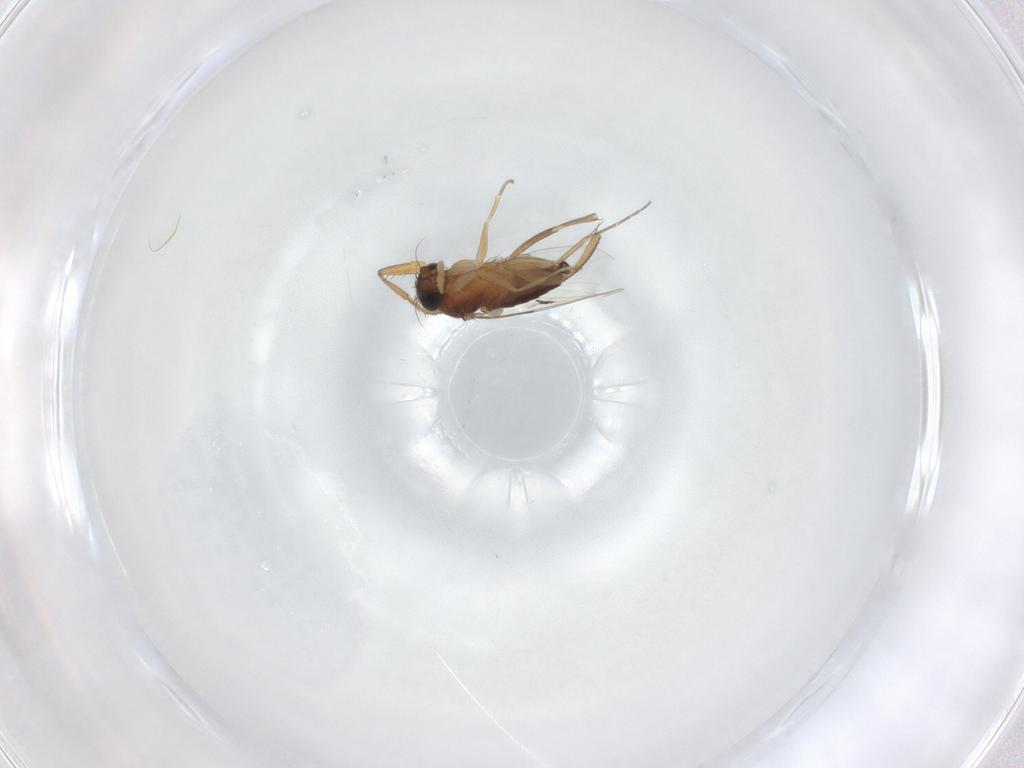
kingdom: Animalia
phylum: Arthropoda
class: Insecta
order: Diptera
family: Phoridae
